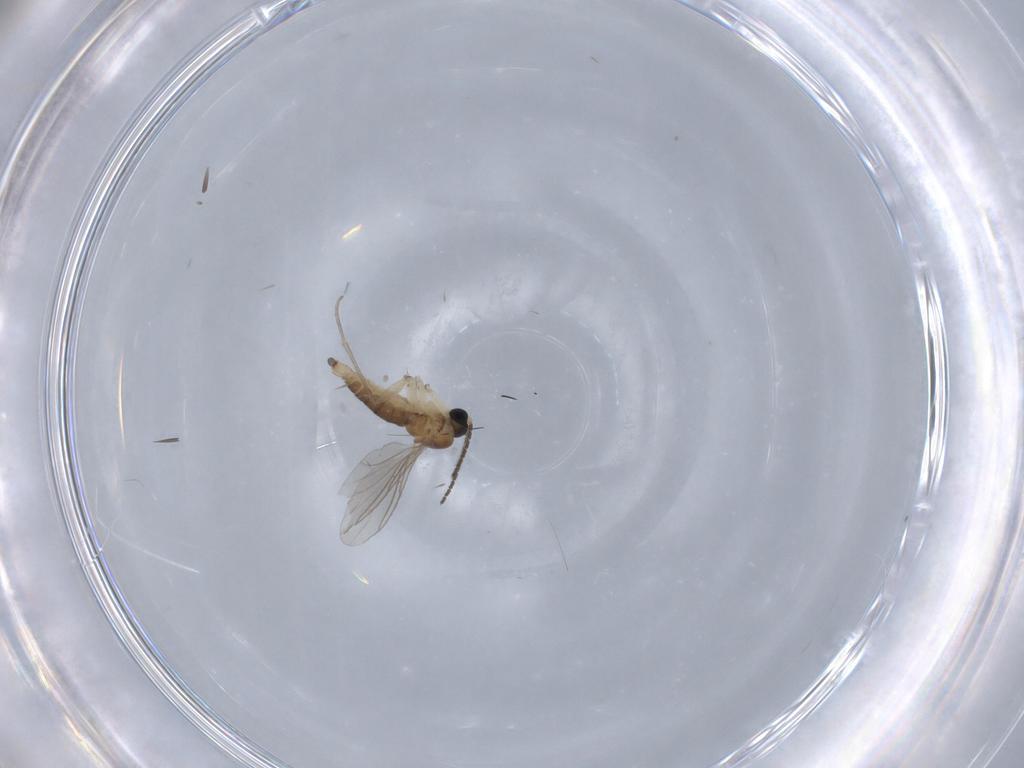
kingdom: Animalia
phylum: Arthropoda
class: Insecta
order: Diptera
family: Sciaridae
